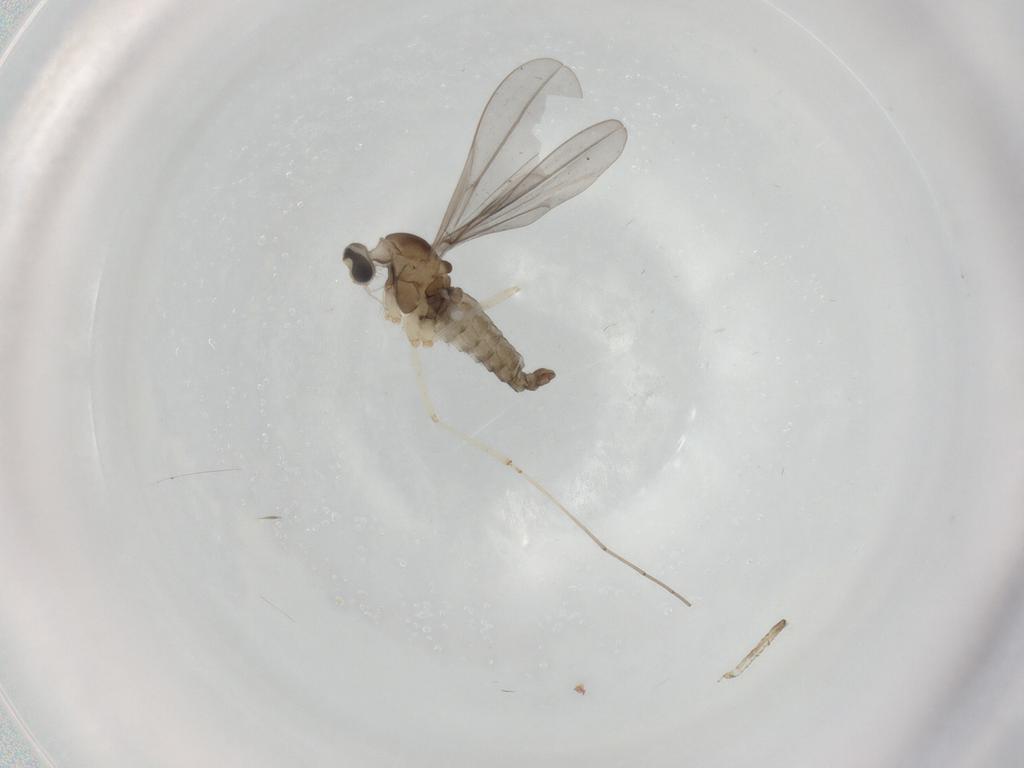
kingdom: Animalia
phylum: Arthropoda
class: Insecta
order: Diptera
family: Cecidomyiidae
